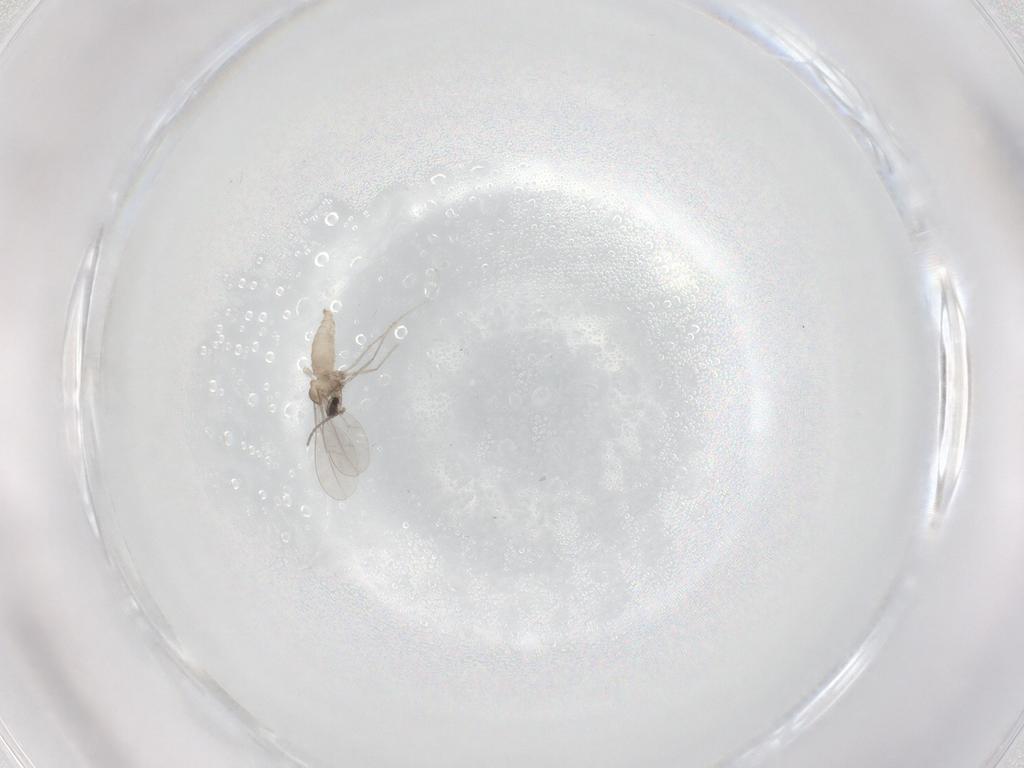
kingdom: Animalia
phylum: Arthropoda
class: Insecta
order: Diptera
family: Cecidomyiidae
